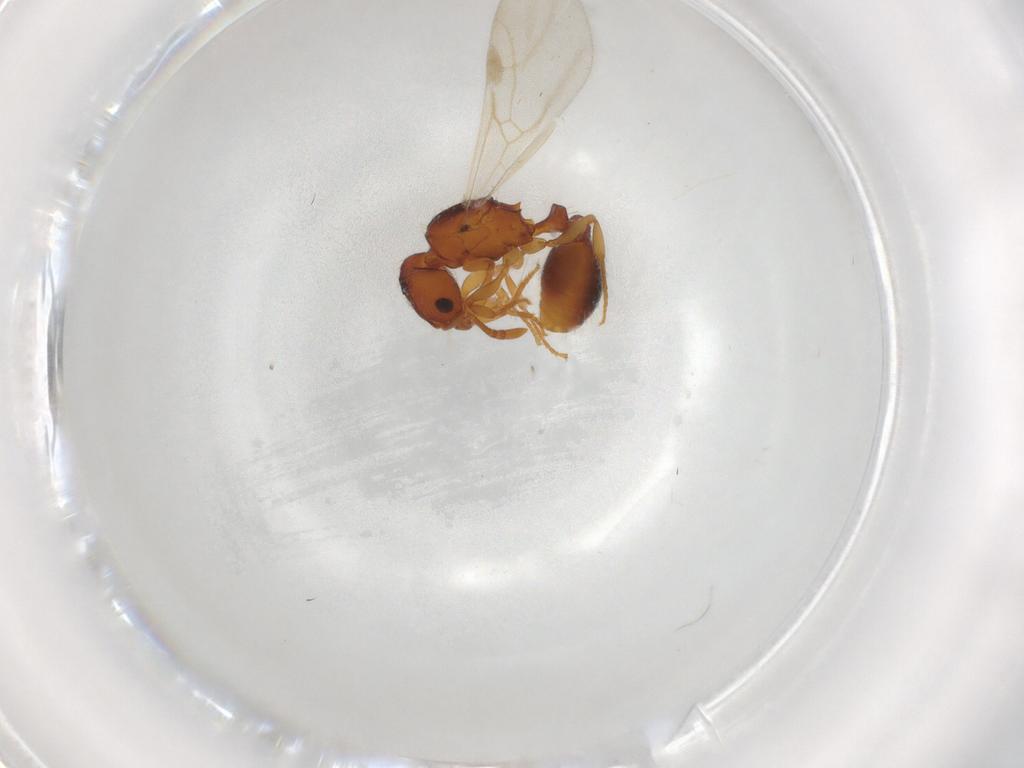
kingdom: Animalia
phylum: Arthropoda
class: Insecta
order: Hymenoptera
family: Formicidae
